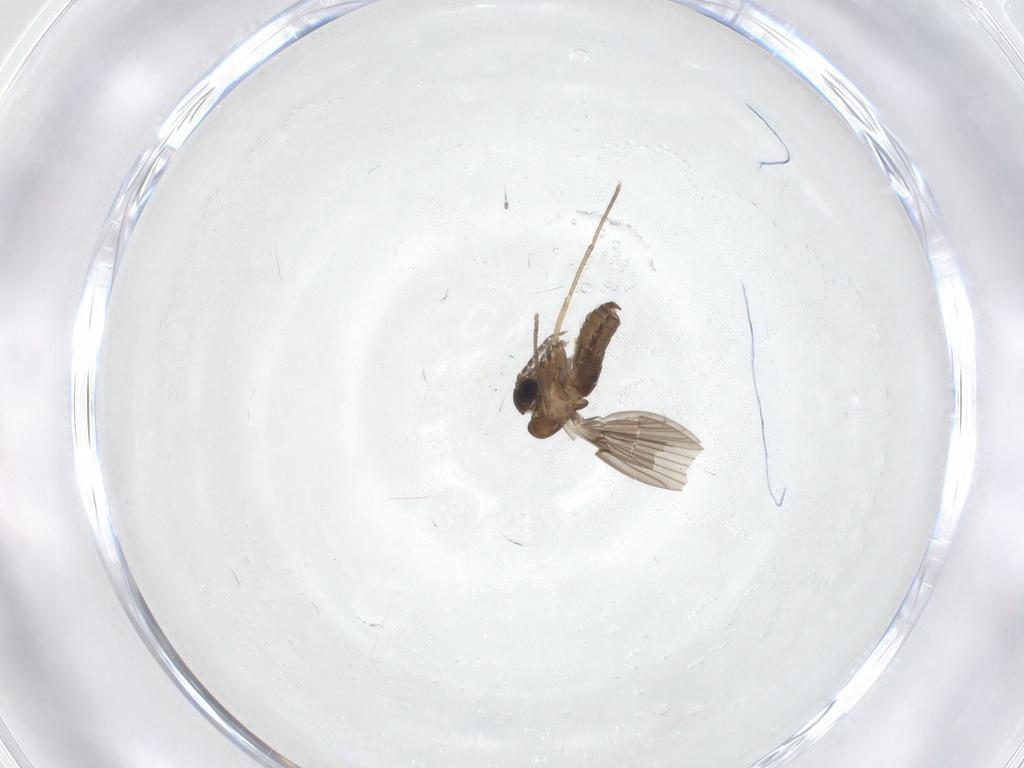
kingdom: Animalia
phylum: Arthropoda
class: Insecta
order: Diptera
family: Psychodidae
